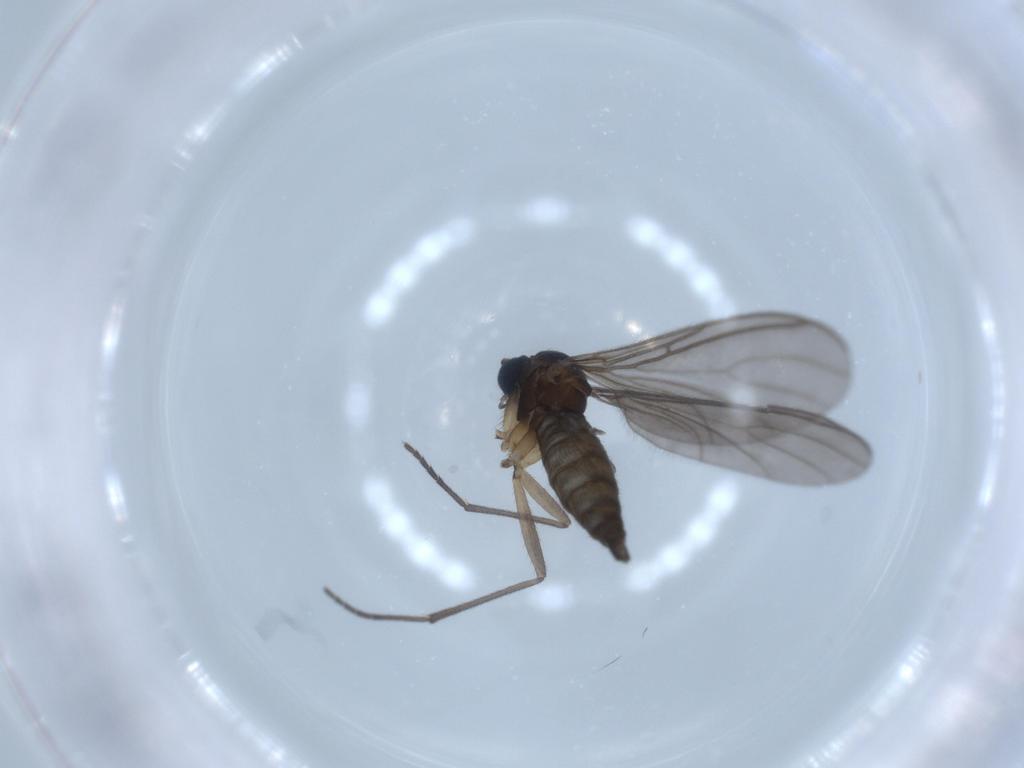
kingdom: Animalia
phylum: Arthropoda
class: Insecta
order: Diptera
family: Sciaridae
